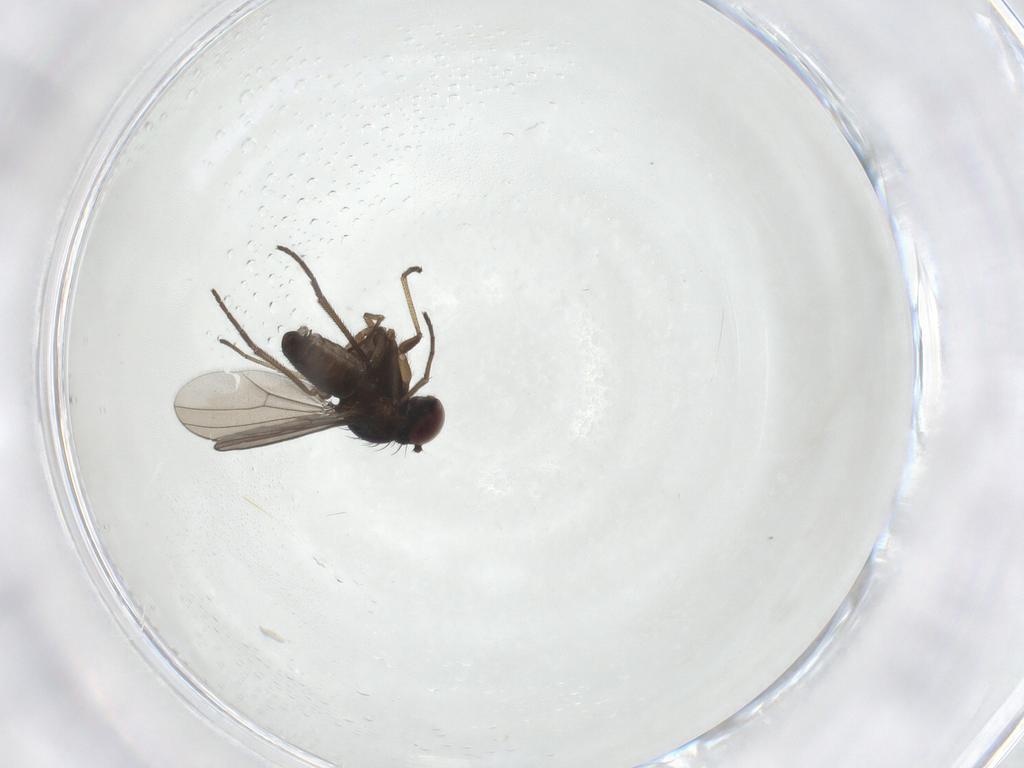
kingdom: Animalia
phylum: Arthropoda
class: Insecta
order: Diptera
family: Dolichopodidae
